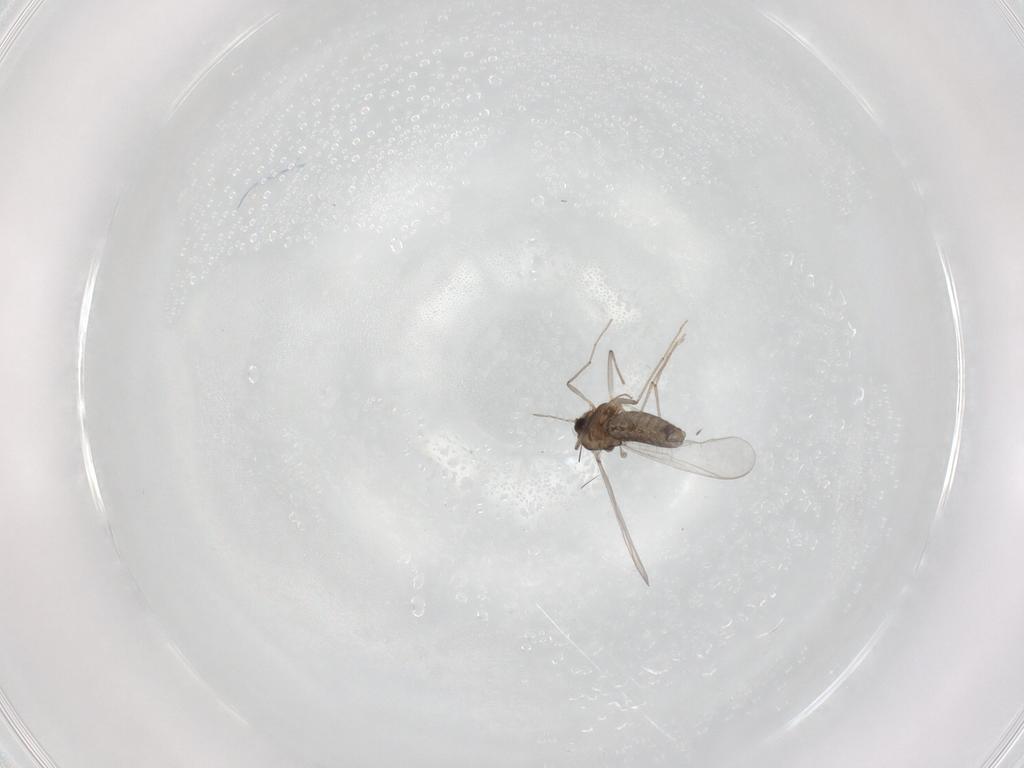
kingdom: Animalia
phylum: Arthropoda
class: Insecta
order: Diptera
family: Chironomidae
